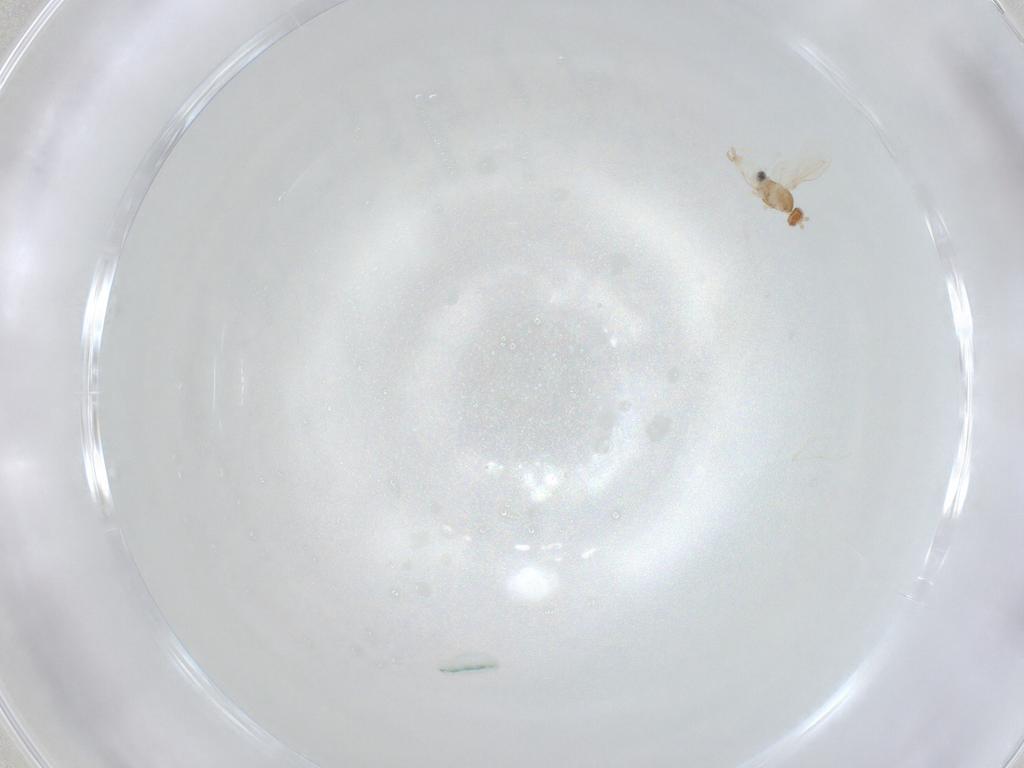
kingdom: Animalia
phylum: Arthropoda
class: Insecta
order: Diptera
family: Cecidomyiidae
